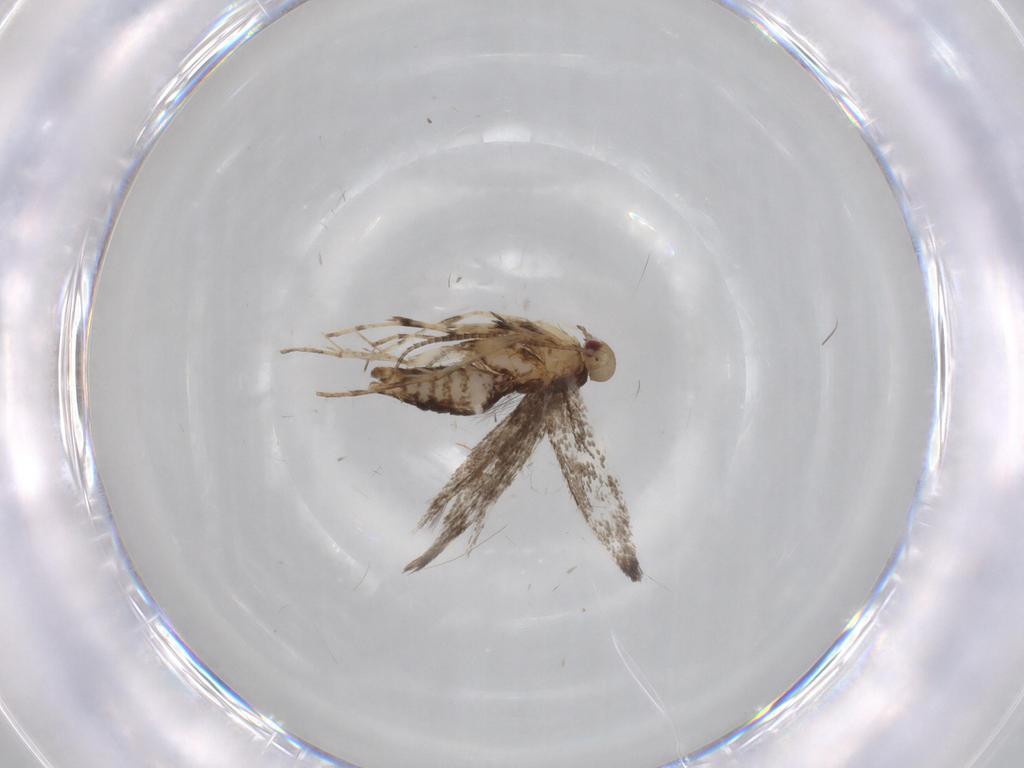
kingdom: Animalia
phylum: Arthropoda
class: Insecta
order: Lepidoptera
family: Gracillariidae
